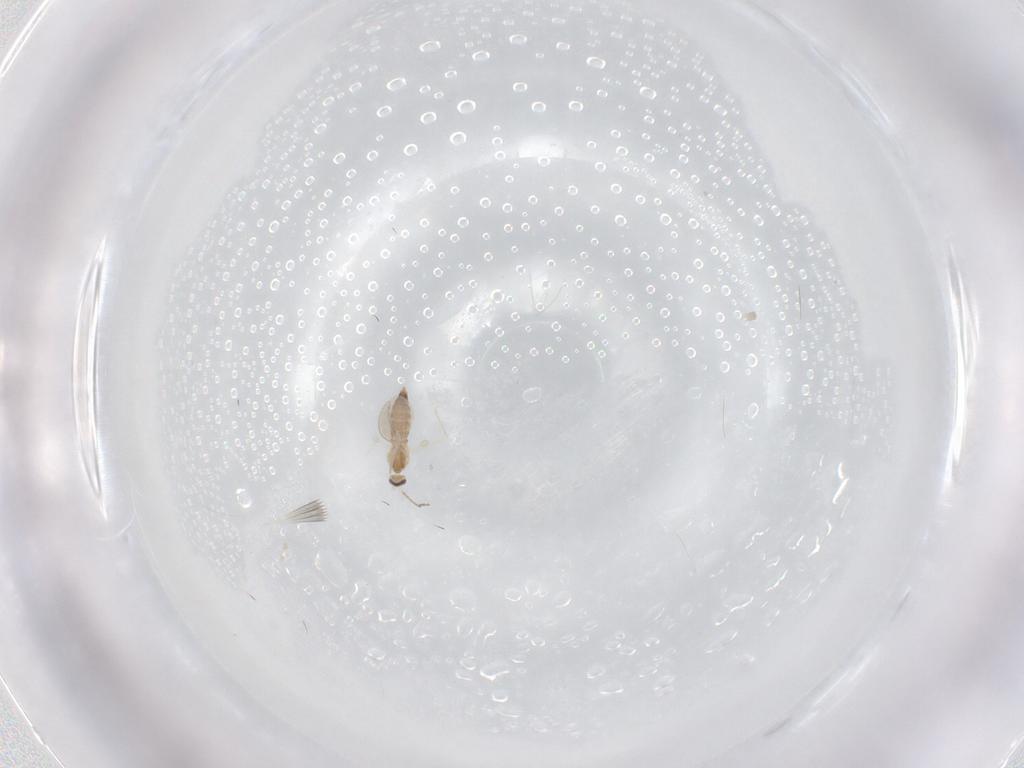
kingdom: Animalia
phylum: Arthropoda
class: Insecta
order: Diptera
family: Cecidomyiidae
